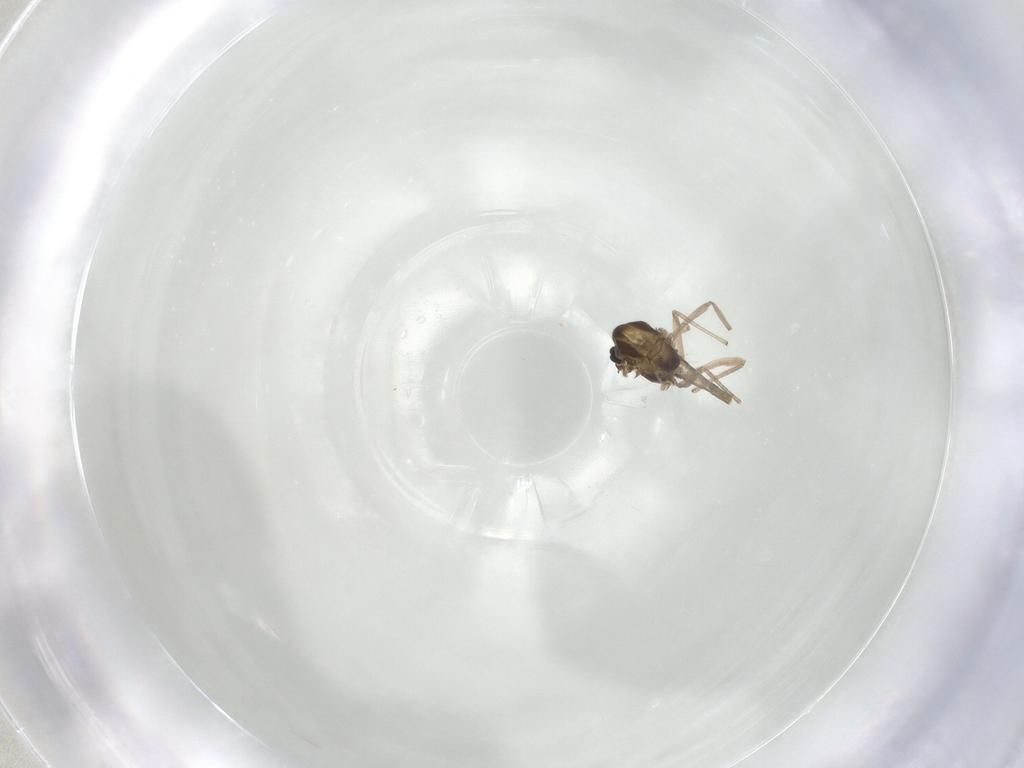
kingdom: Animalia
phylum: Arthropoda
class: Insecta
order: Diptera
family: Chironomidae
